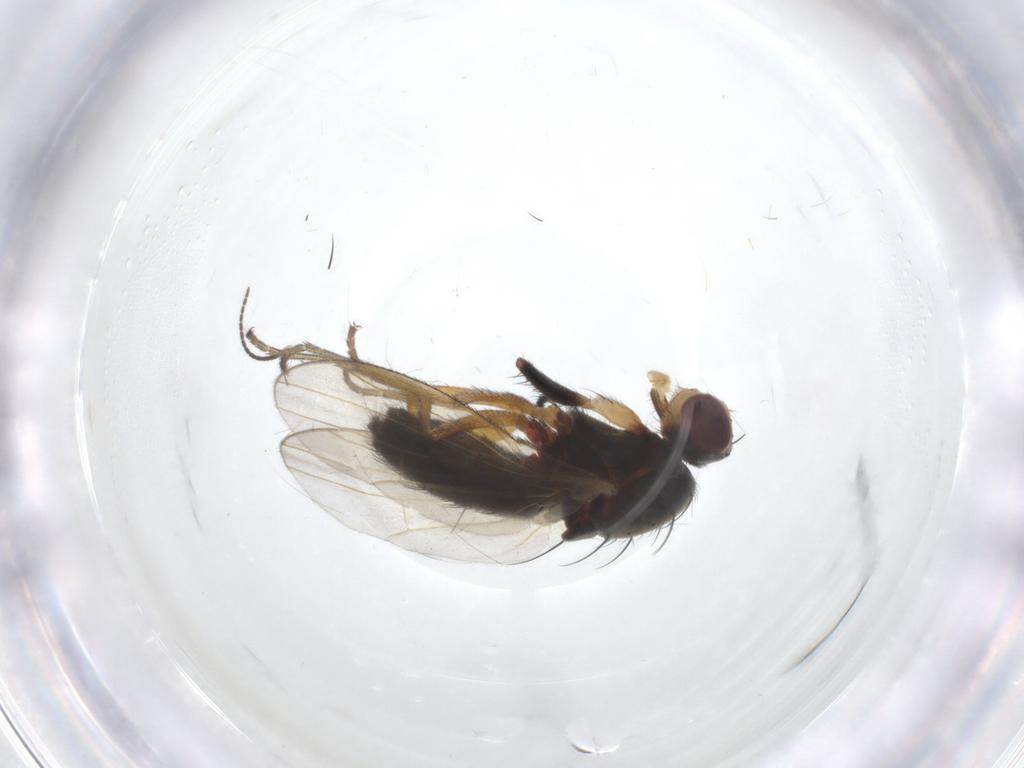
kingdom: Animalia
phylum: Arthropoda
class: Insecta
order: Diptera
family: Heleomyzidae
